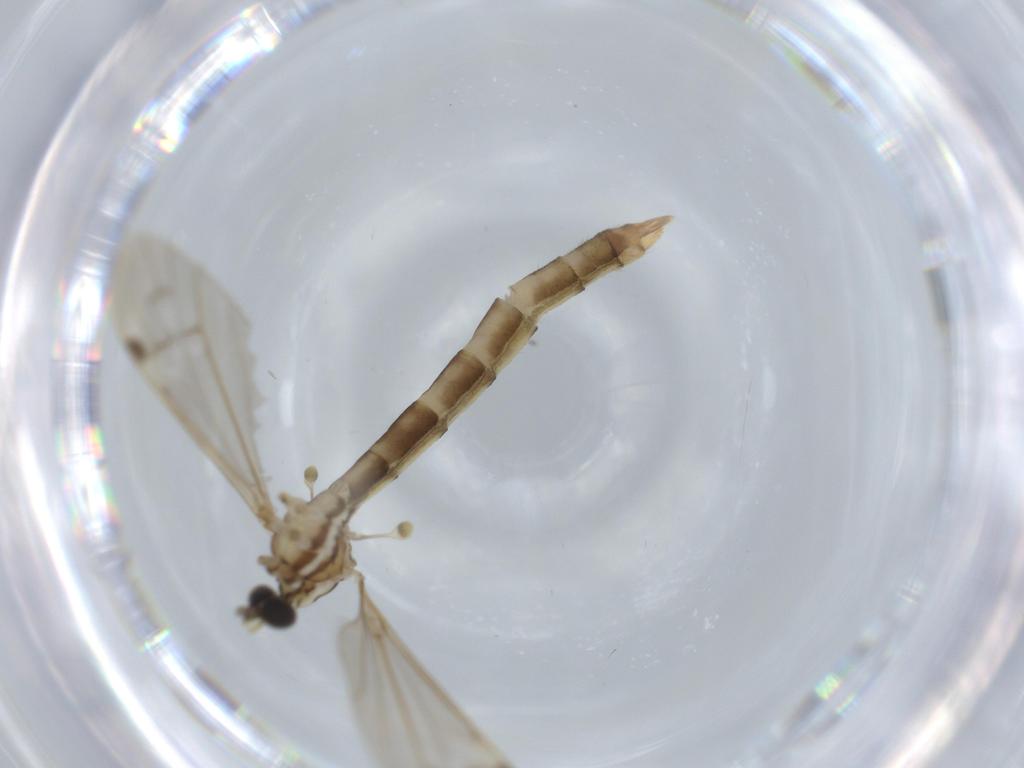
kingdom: Animalia
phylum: Arthropoda
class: Insecta
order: Diptera
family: Sciaridae
